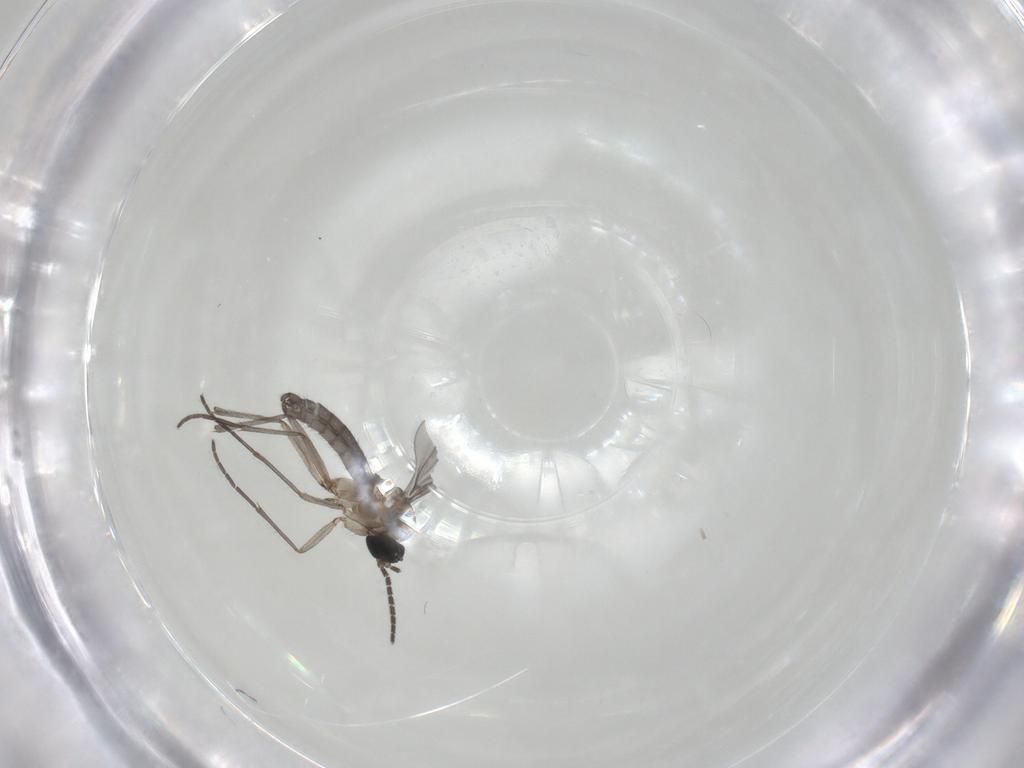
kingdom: Animalia
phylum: Arthropoda
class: Insecta
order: Diptera
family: Sciaridae
